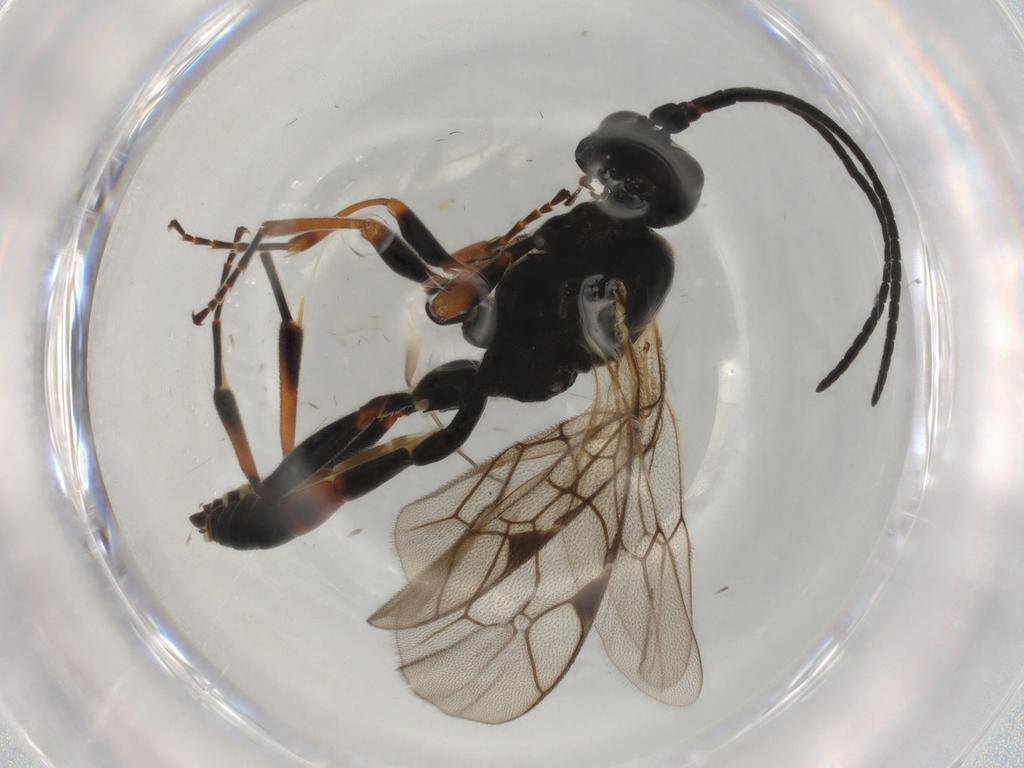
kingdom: Animalia
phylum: Arthropoda
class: Insecta
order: Hymenoptera
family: Ichneumonidae
